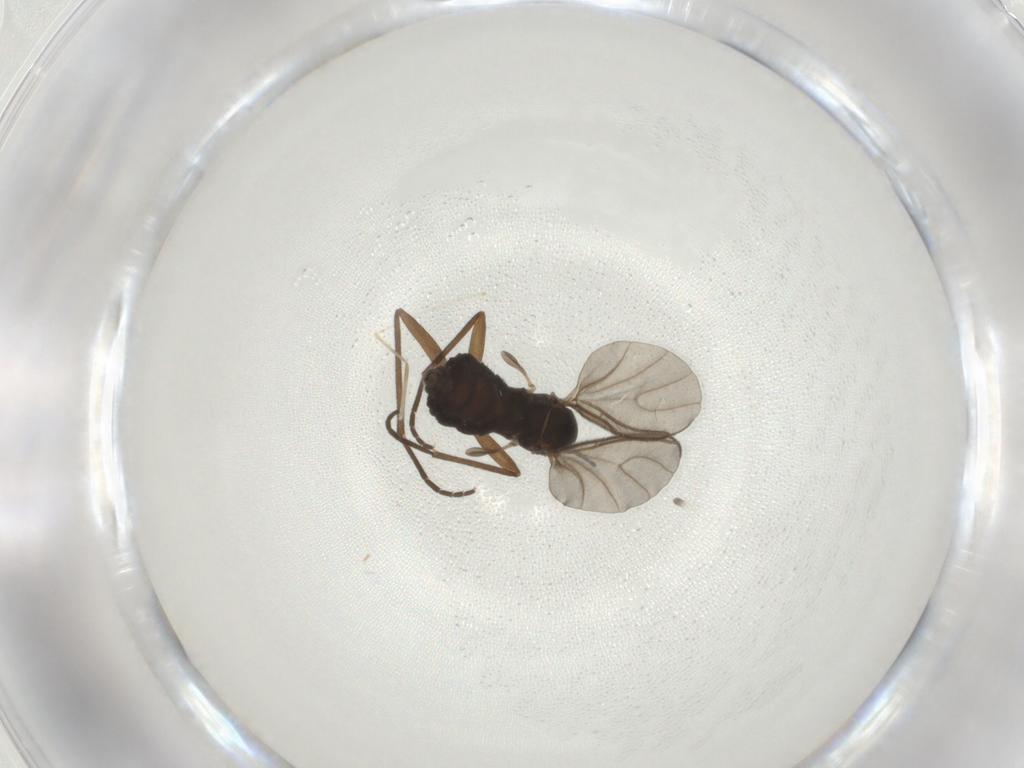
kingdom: Animalia
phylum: Arthropoda
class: Insecta
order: Diptera
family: Sciaridae
